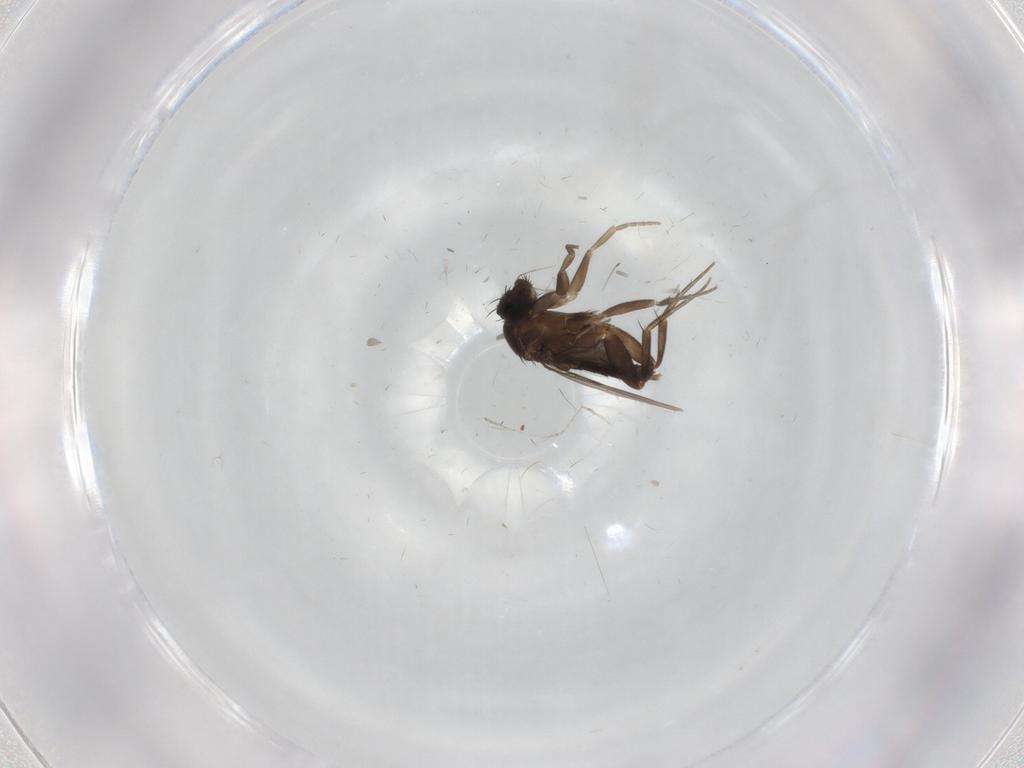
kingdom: Animalia
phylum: Arthropoda
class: Insecta
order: Diptera
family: Phoridae
